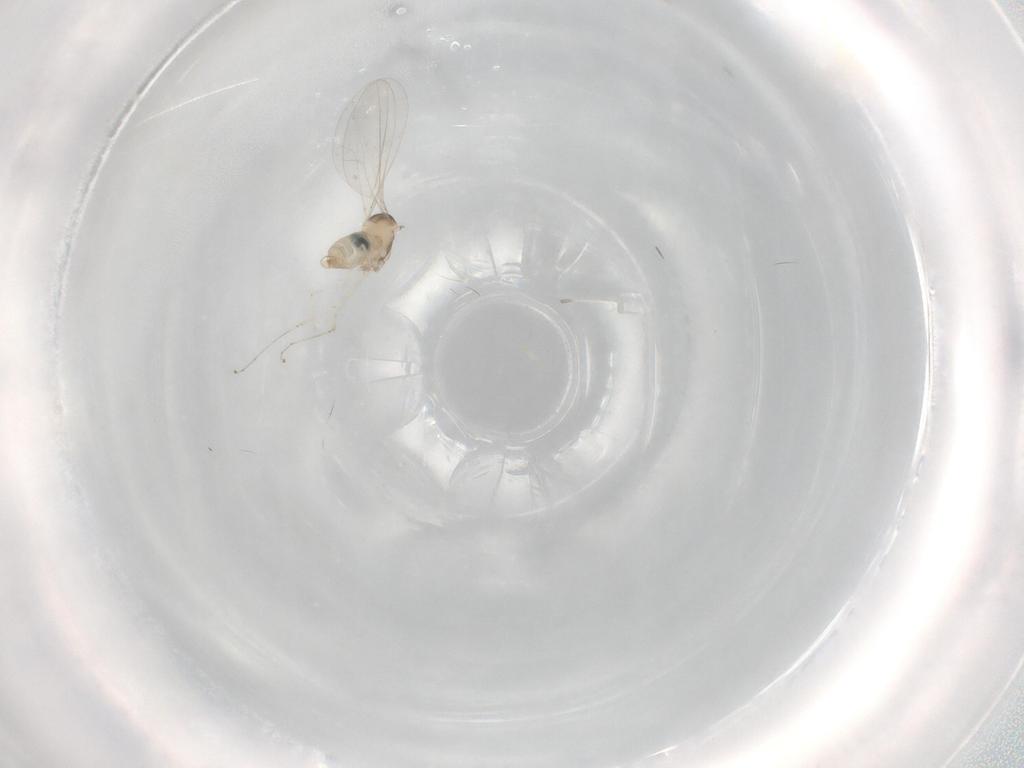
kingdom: Animalia
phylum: Arthropoda
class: Insecta
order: Diptera
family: Cecidomyiidae
